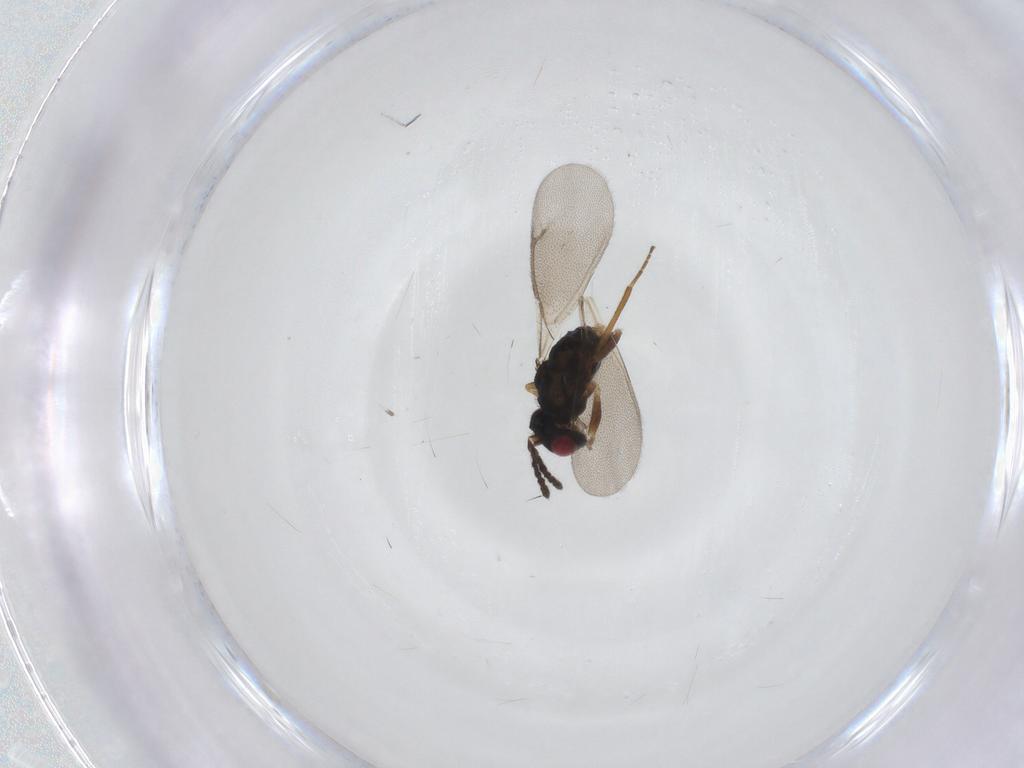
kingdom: Animalia
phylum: Arthropoda
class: Insecta
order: Hymenoptera
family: Eulophidae
